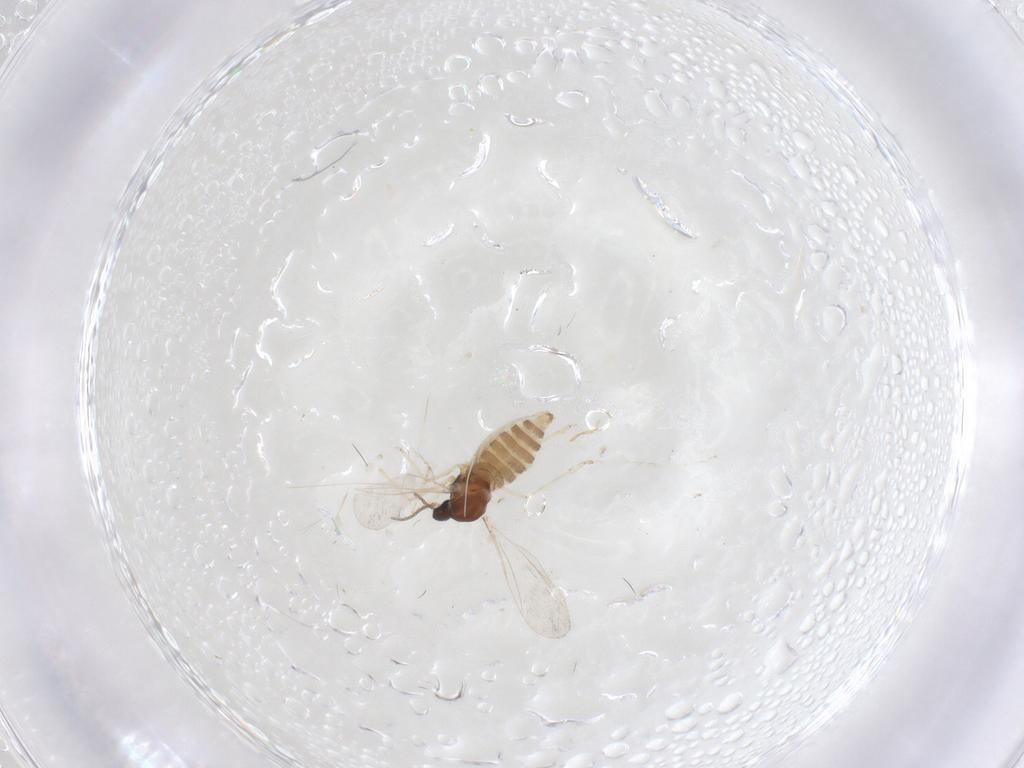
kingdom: Animalia
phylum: Arthropoda
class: Insecta
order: Diptera
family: Cecidomyiidae
